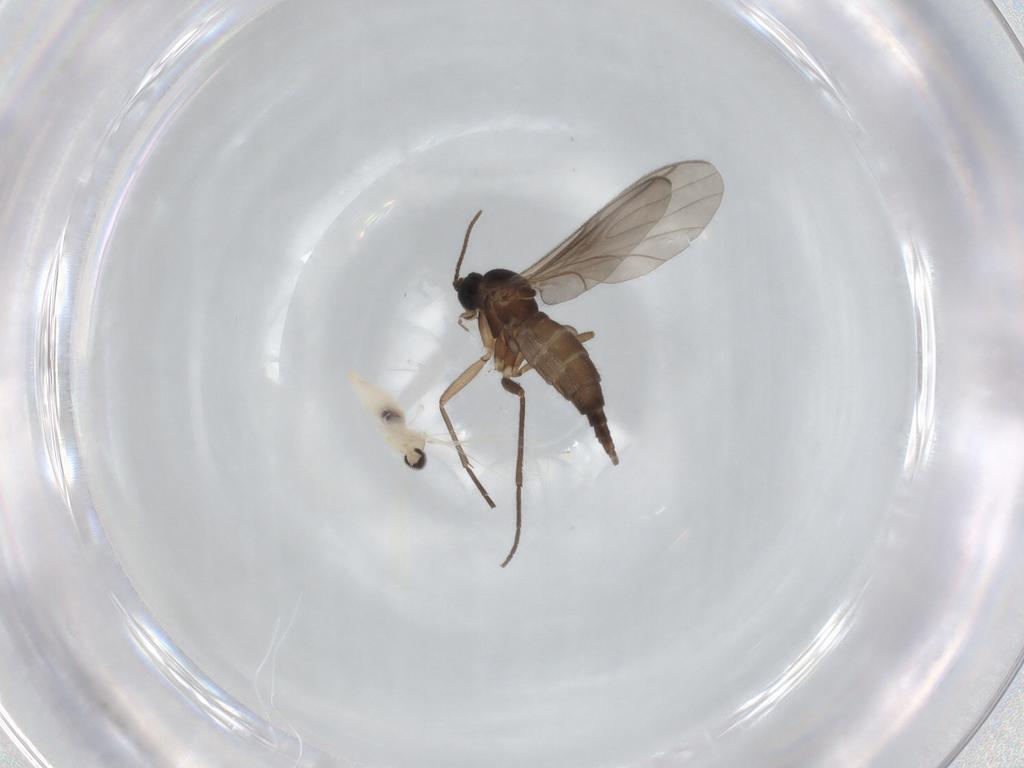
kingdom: Animalia
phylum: Arthropoda
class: Insecta
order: Diptera
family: Sciaridae
